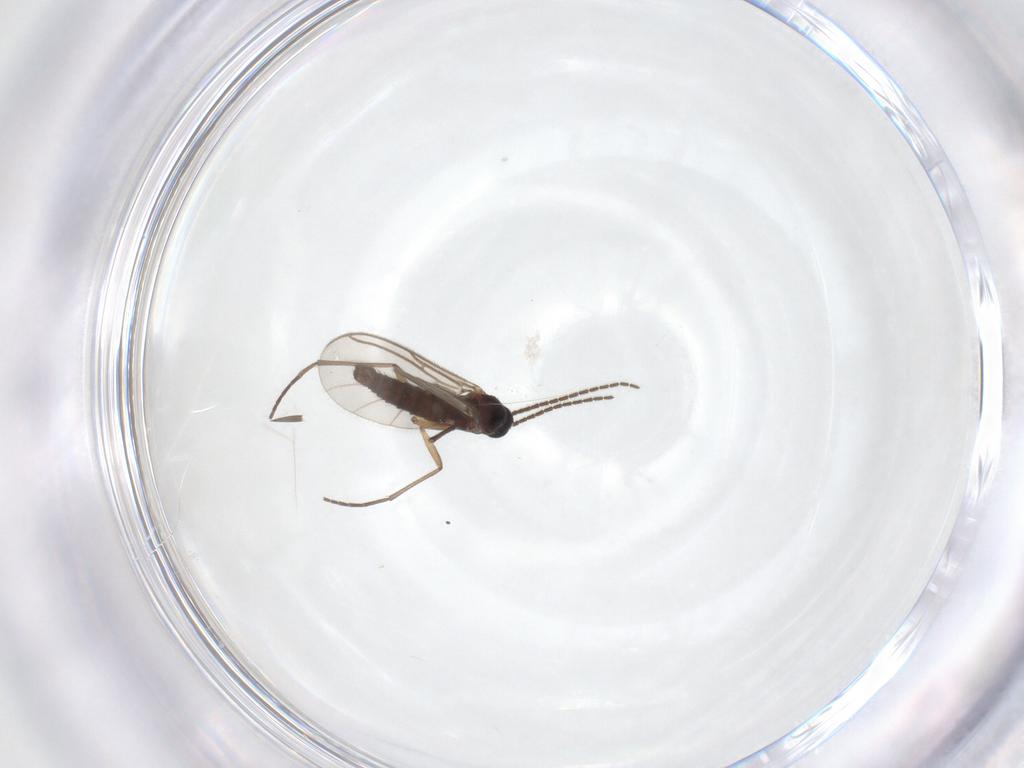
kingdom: Animalia
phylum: Arthropoda
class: Insecta
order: Diptera
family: Sciaridae
